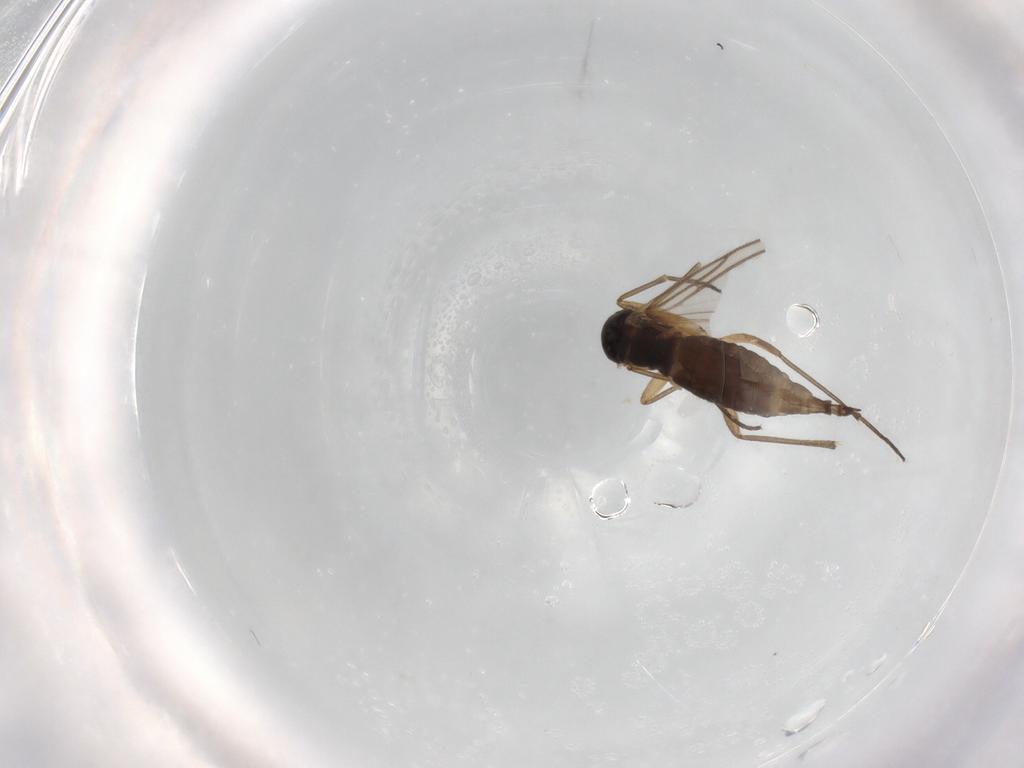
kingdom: Animalia
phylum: Arthropoda
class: Insecta
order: Diptera
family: Sciaridae
